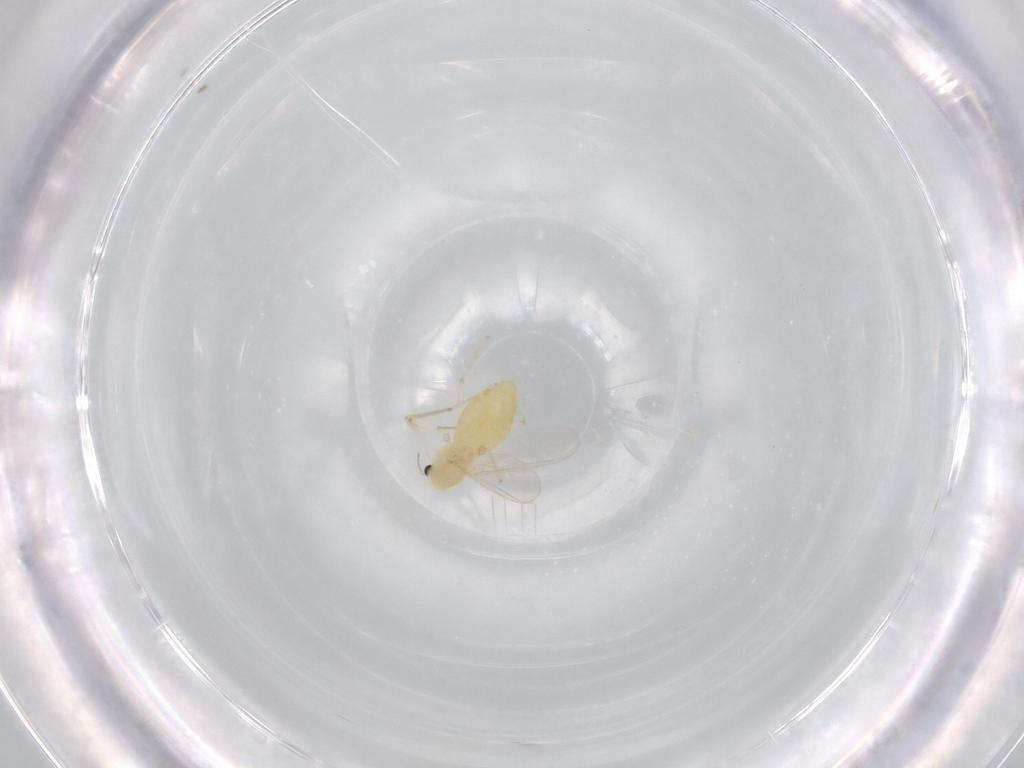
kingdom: Animalia
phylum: Arthropoda
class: Insecta
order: Diptera
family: Chironomidae
